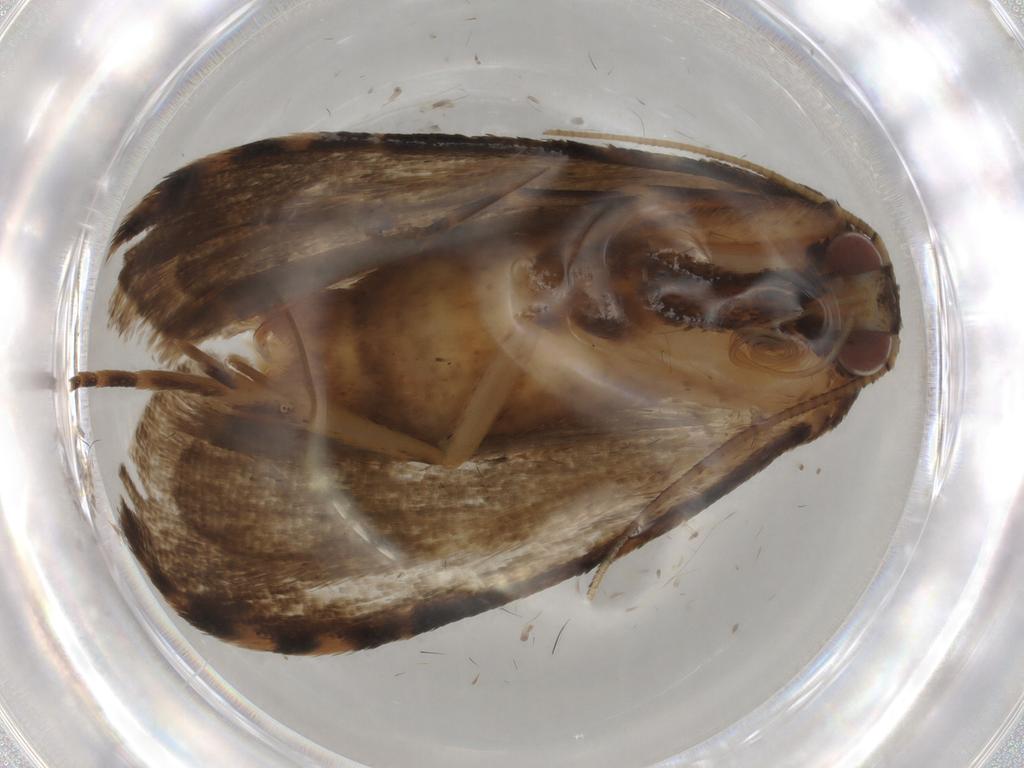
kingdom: Animalia
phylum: Arthropoda
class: Insecta
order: Lepidoptera
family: Erebidae
